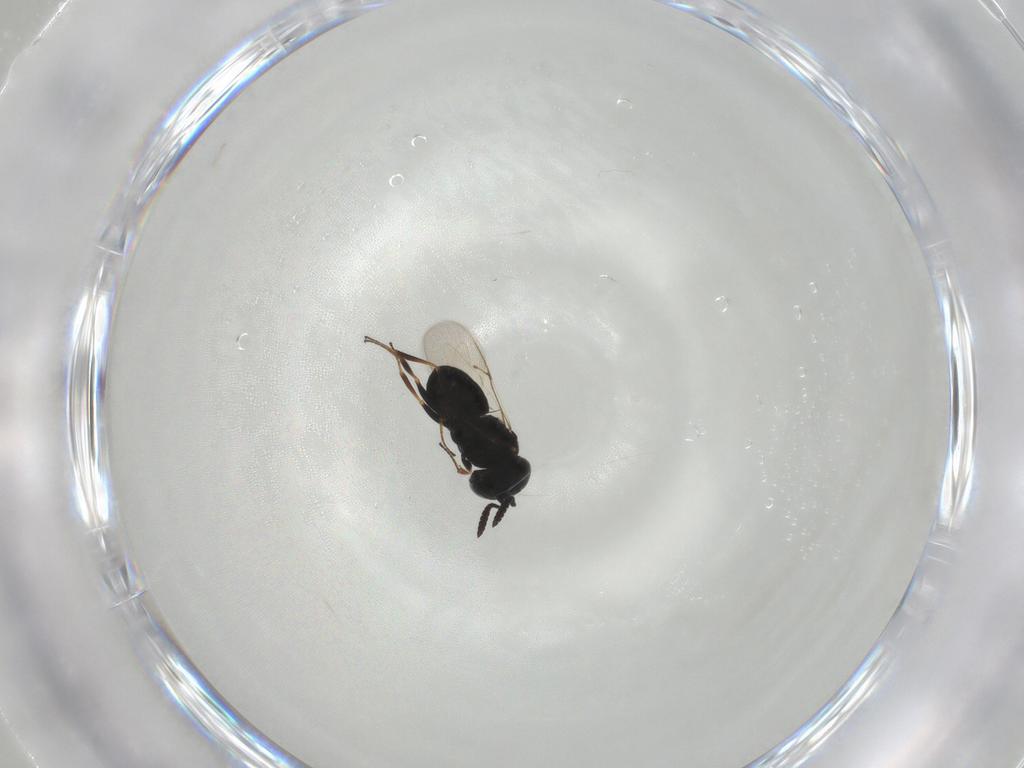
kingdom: Animalia
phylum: Arthropoda
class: Insecta
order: Hymenoptera
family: Scelionidae
